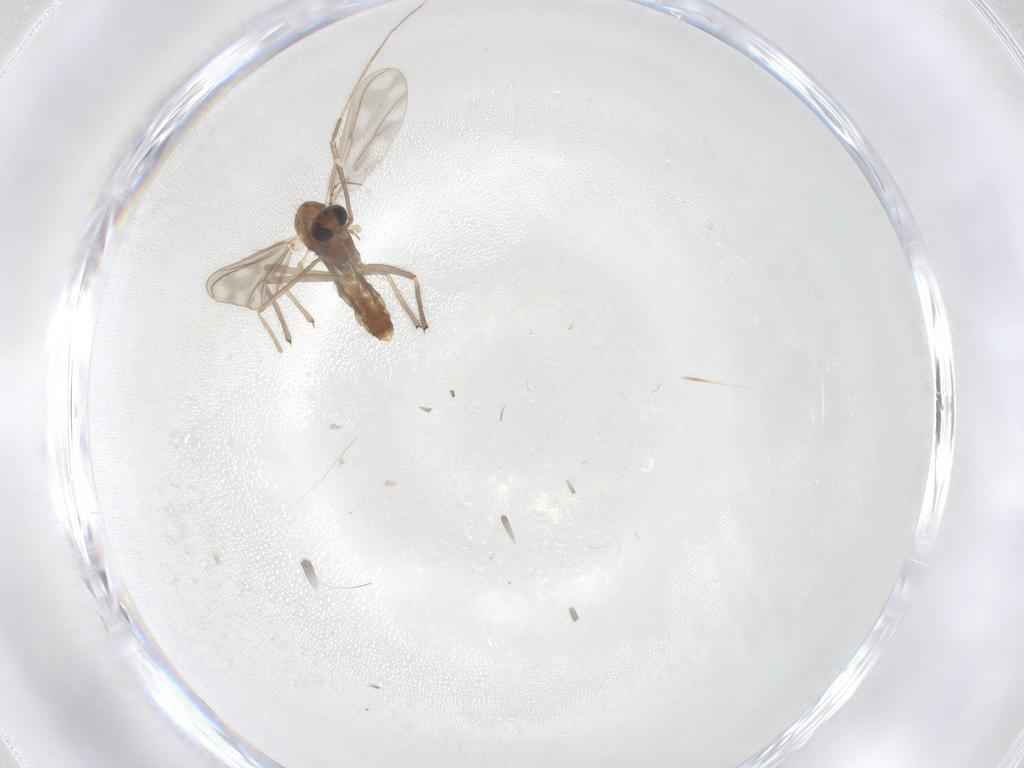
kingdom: Animalia
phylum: Arthropoda
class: Insecta
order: Diptera
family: Chironomidae
